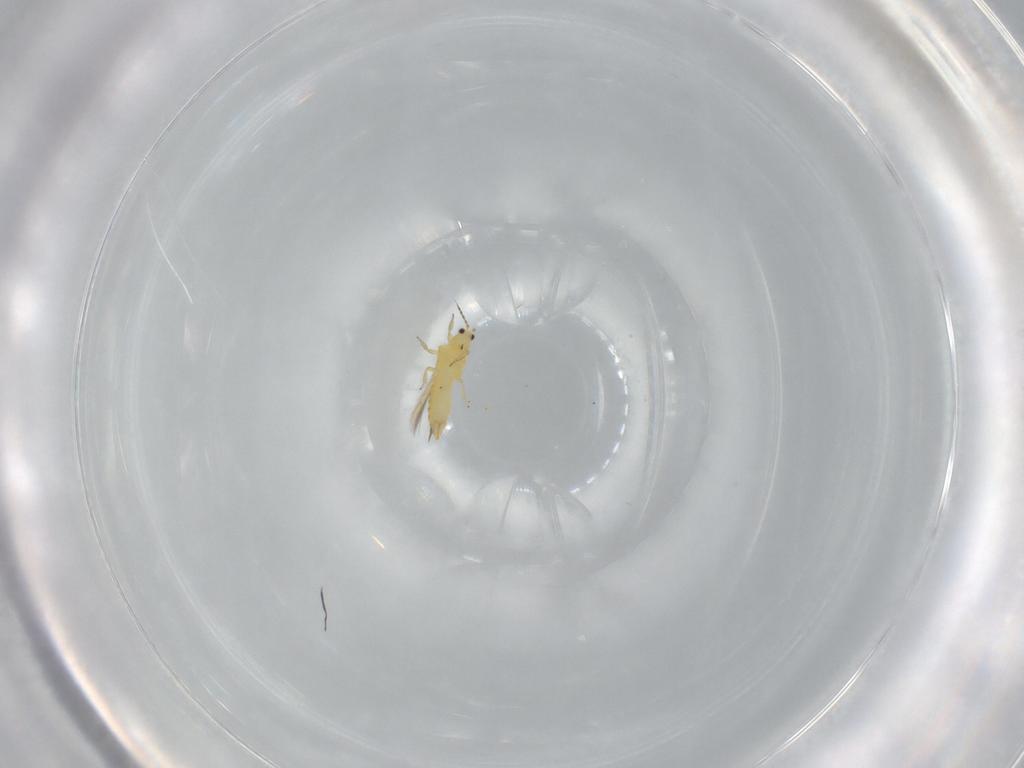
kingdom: Animalia
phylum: Arthropoda
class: Insecta
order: Thysanoptera
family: Thripidae
